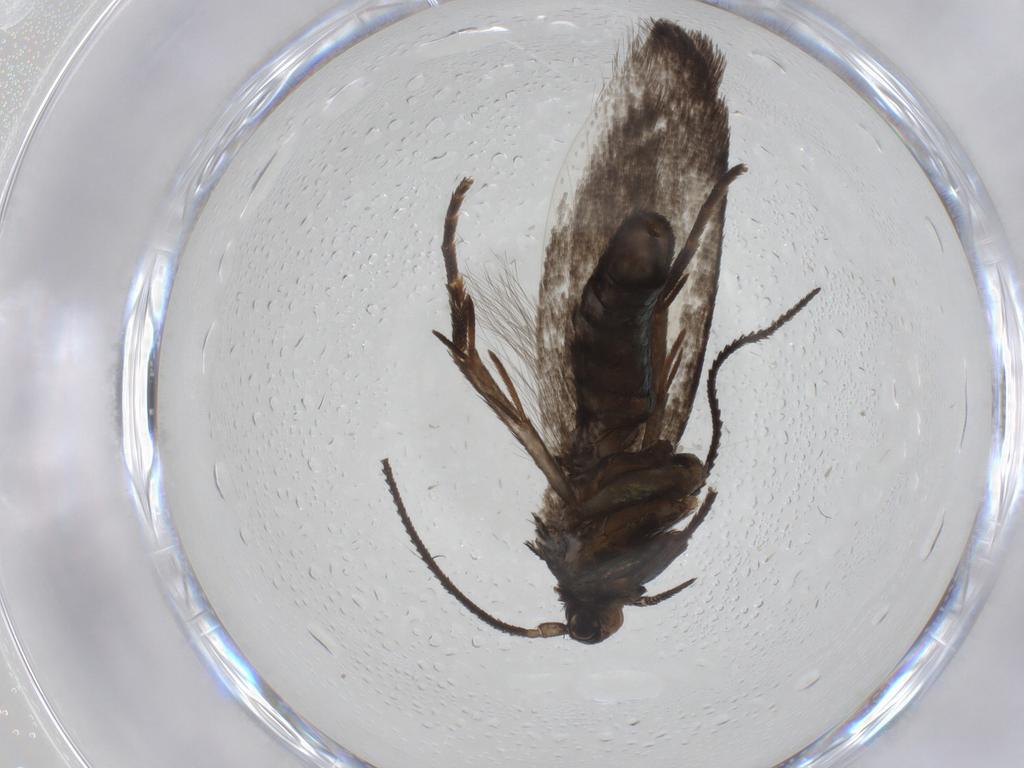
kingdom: Animalia
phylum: Arthropoda
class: Insecta
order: Lepidoptera
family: Argyresthiidae
